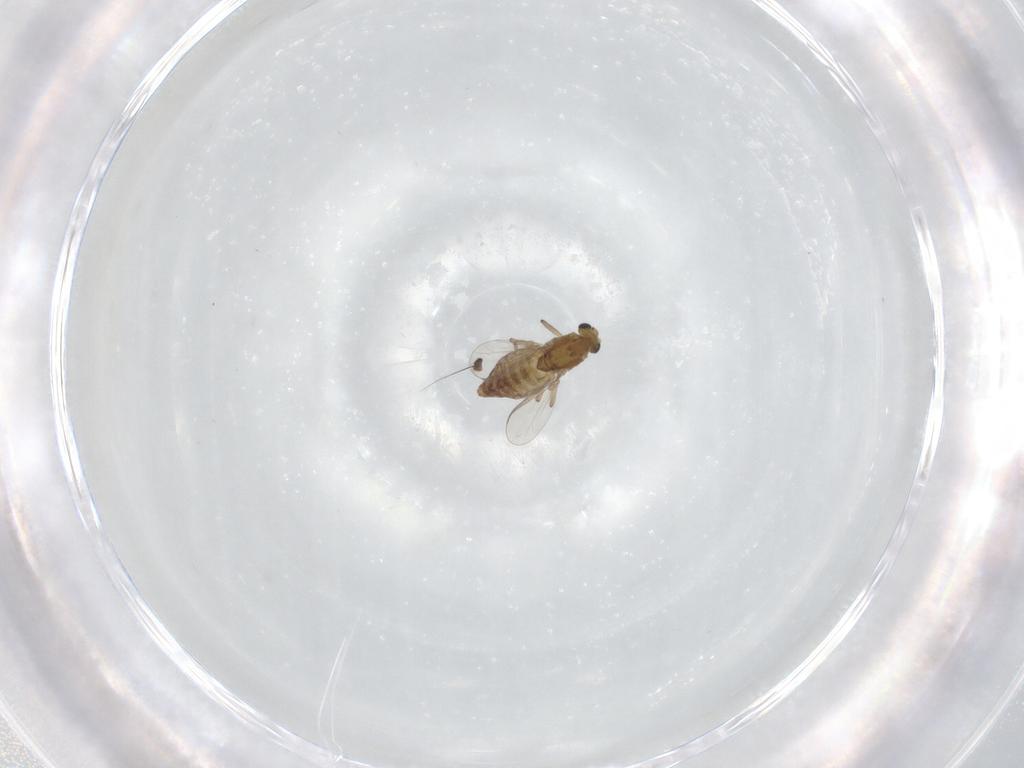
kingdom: Animalia
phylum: Arthropoda
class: Insecta
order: Diptera
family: Chironomidae
